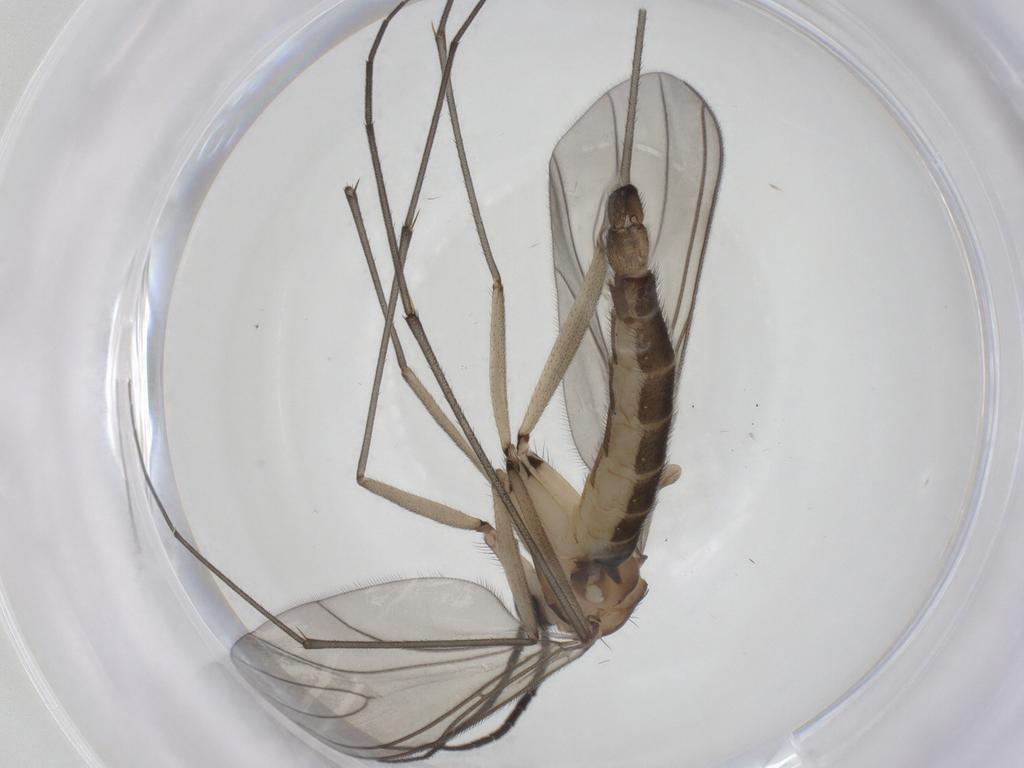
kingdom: Animalia
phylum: Arthropoda
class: Insecta
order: Diptera
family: Sciaridae
